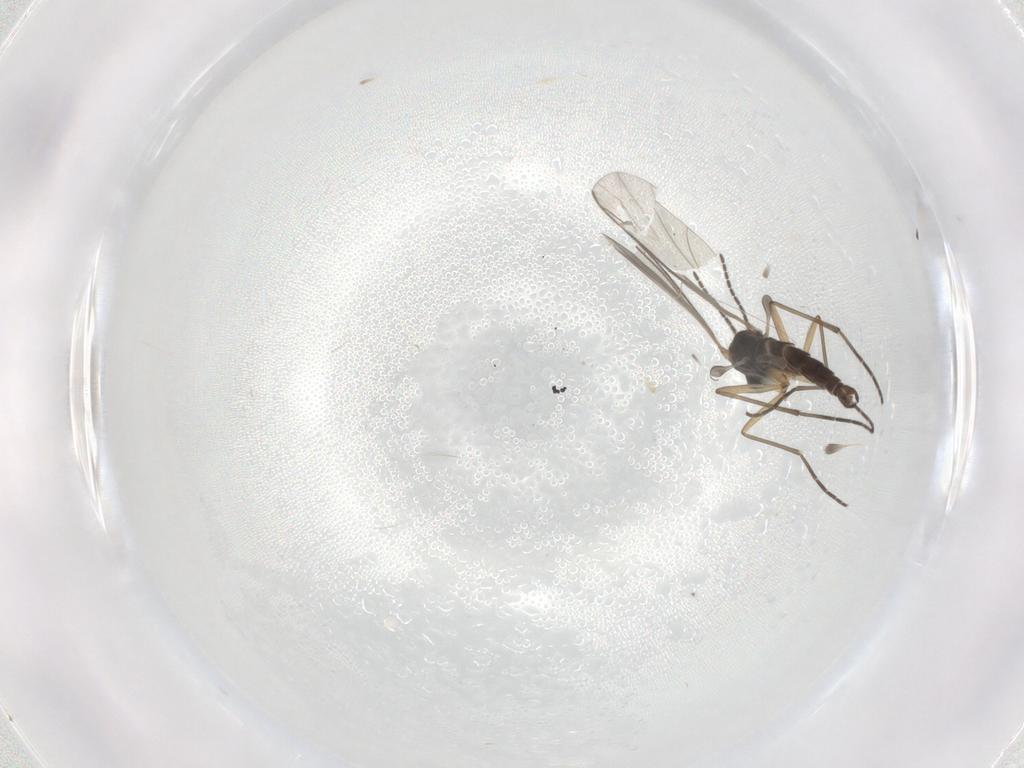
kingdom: Animalia
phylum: Arthropoda
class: Insecta
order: Diptera
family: Sciaridae
